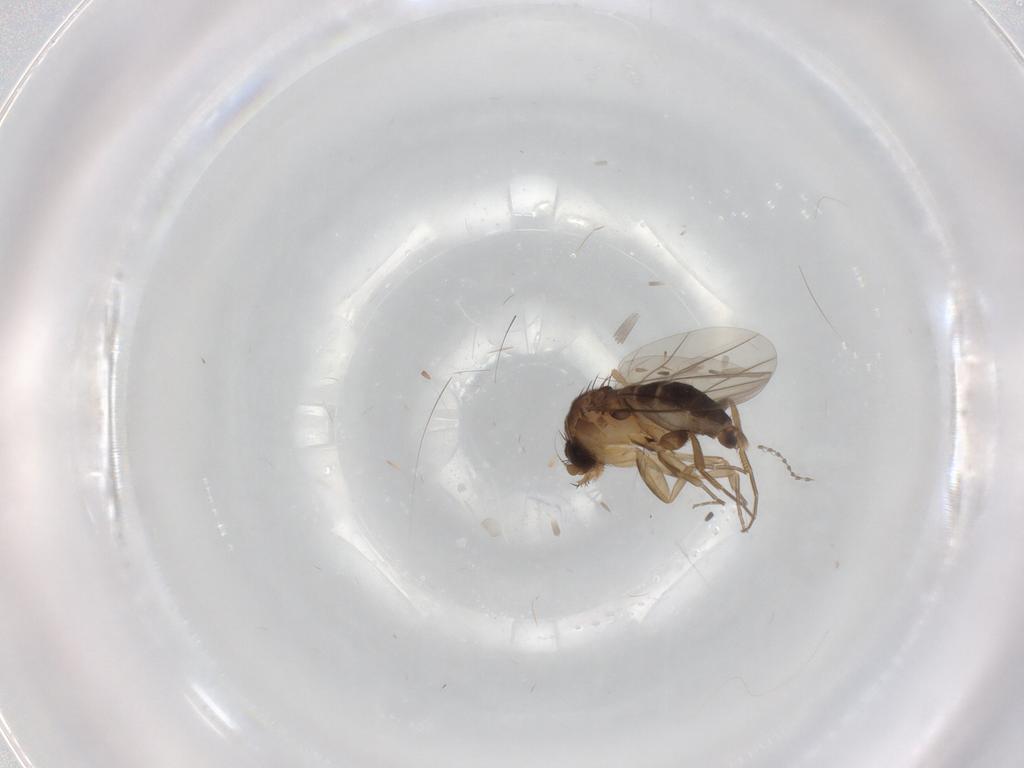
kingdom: Animalia
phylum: Arthropoda
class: Insecta
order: Diptera
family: Phoridae
